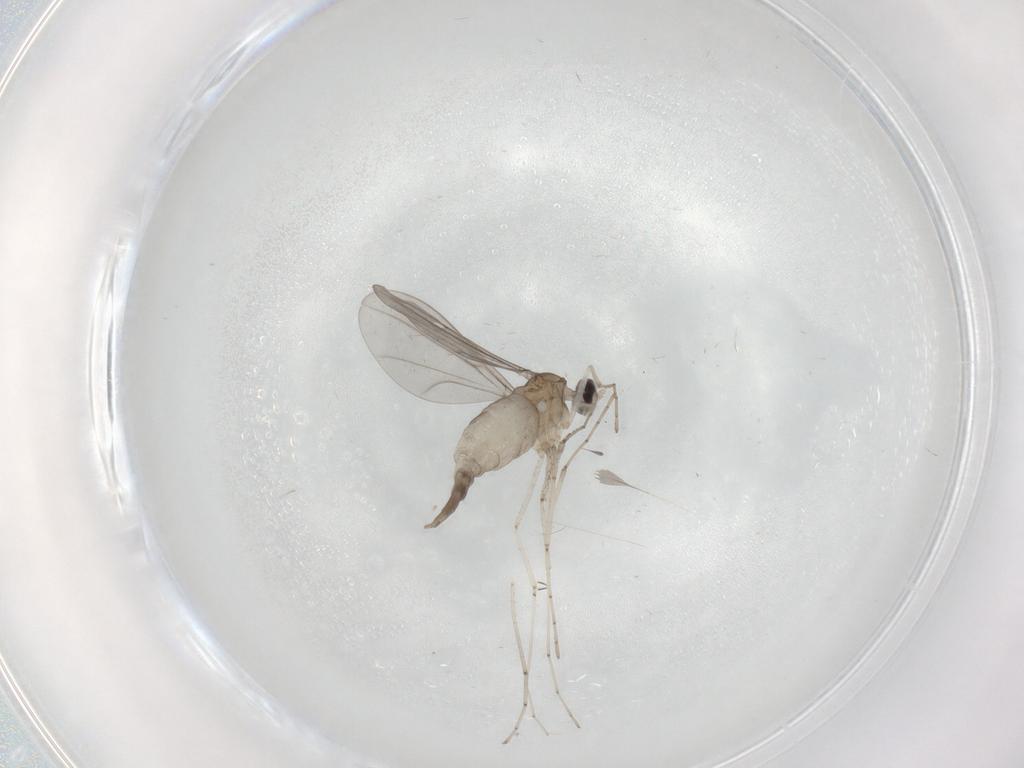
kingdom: Animalia
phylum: Arthropoda
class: Insecta
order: Diptera
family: Cecidomyiidae
